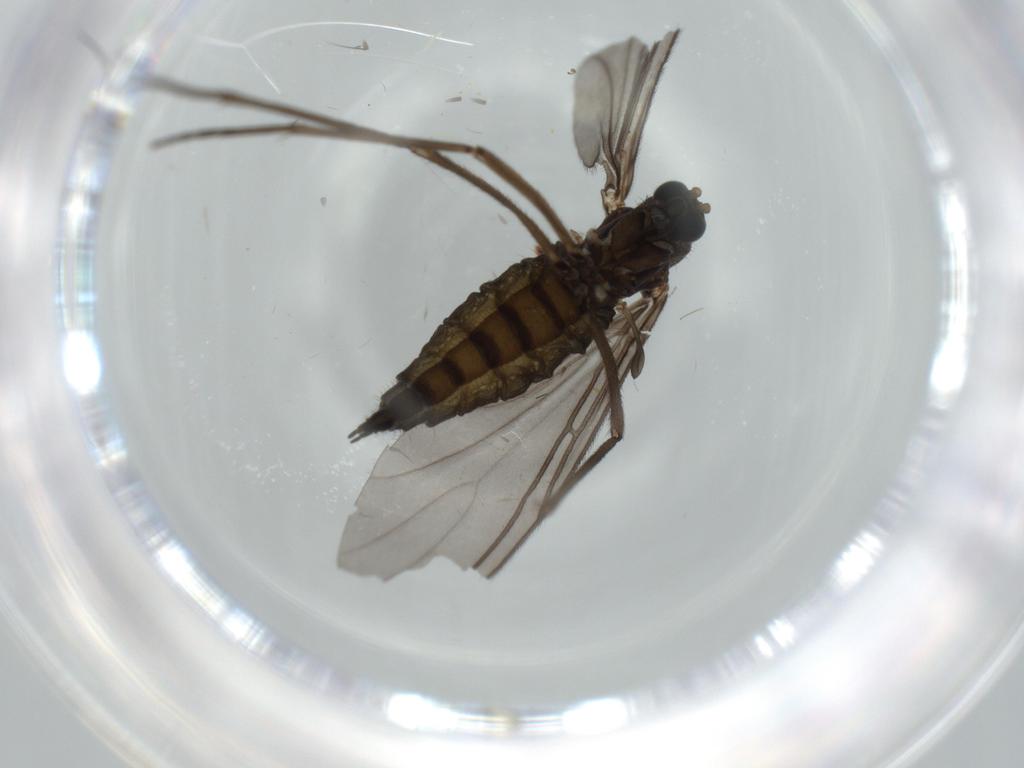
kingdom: Animalia
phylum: Arthropoda
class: Insecta
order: Diptera
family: Sciaridae
